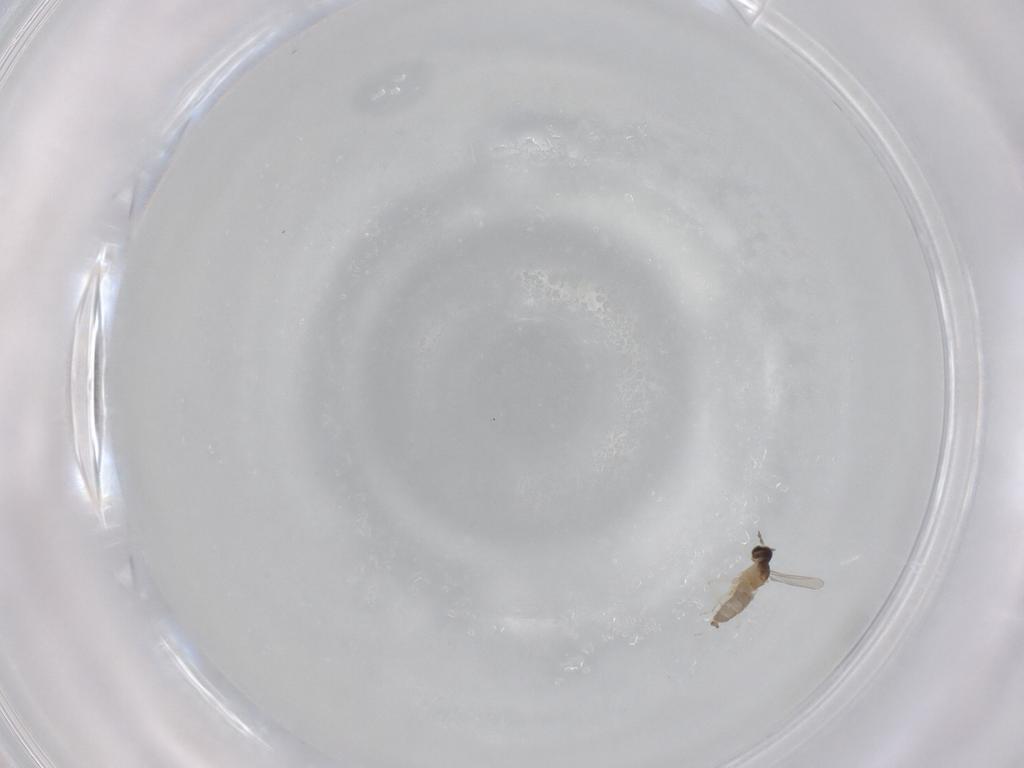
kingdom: Animalia
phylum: Arthropoda
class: Insecta
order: Diptera
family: Cecidomyiidae
